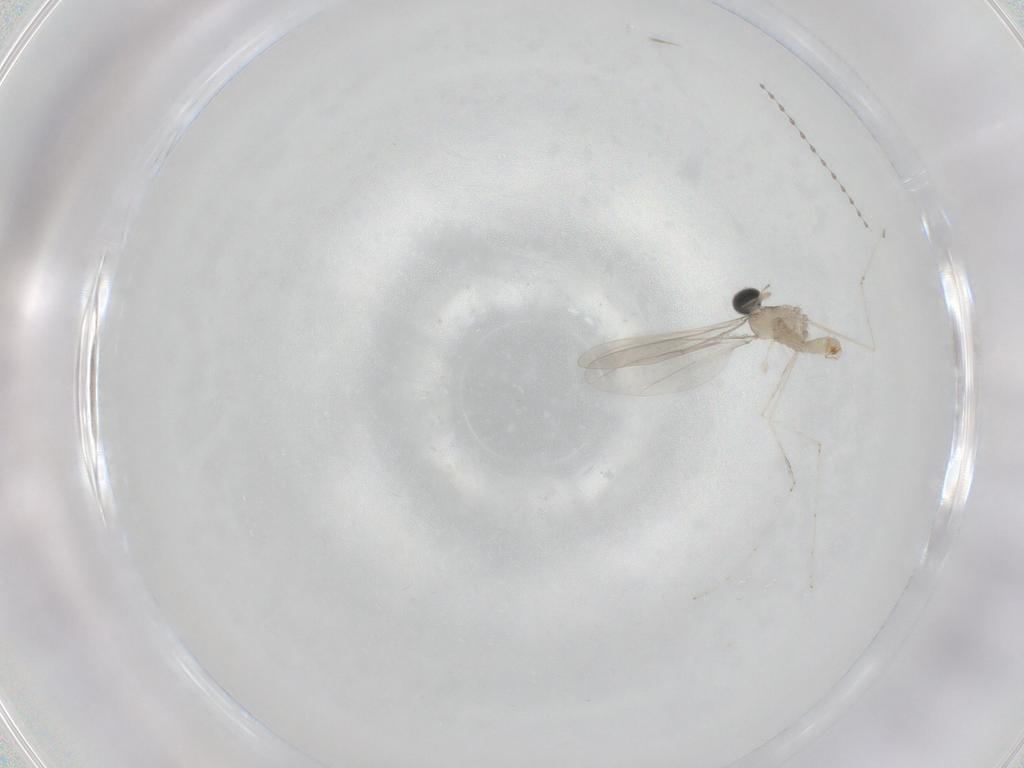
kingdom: Animalia
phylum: Arthropoda
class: Insecta
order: Diptera
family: Cecidomyiidae
